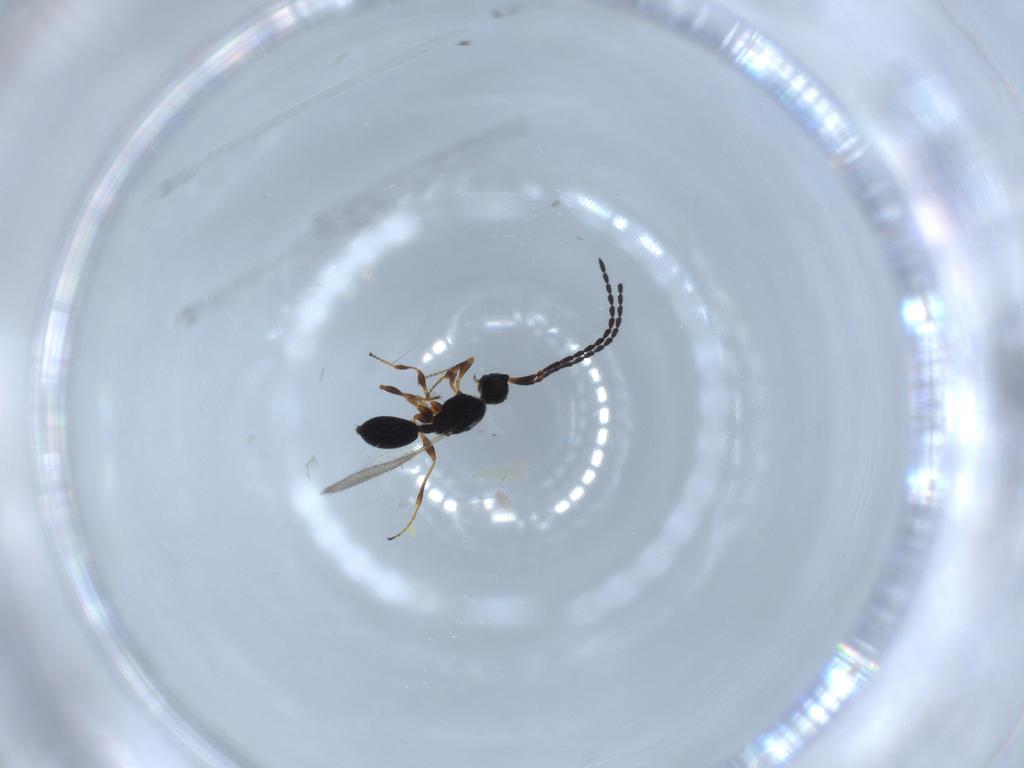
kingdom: Animalia
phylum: Arthropoda
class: Insecta
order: Hymenoptera
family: Diapriidae
